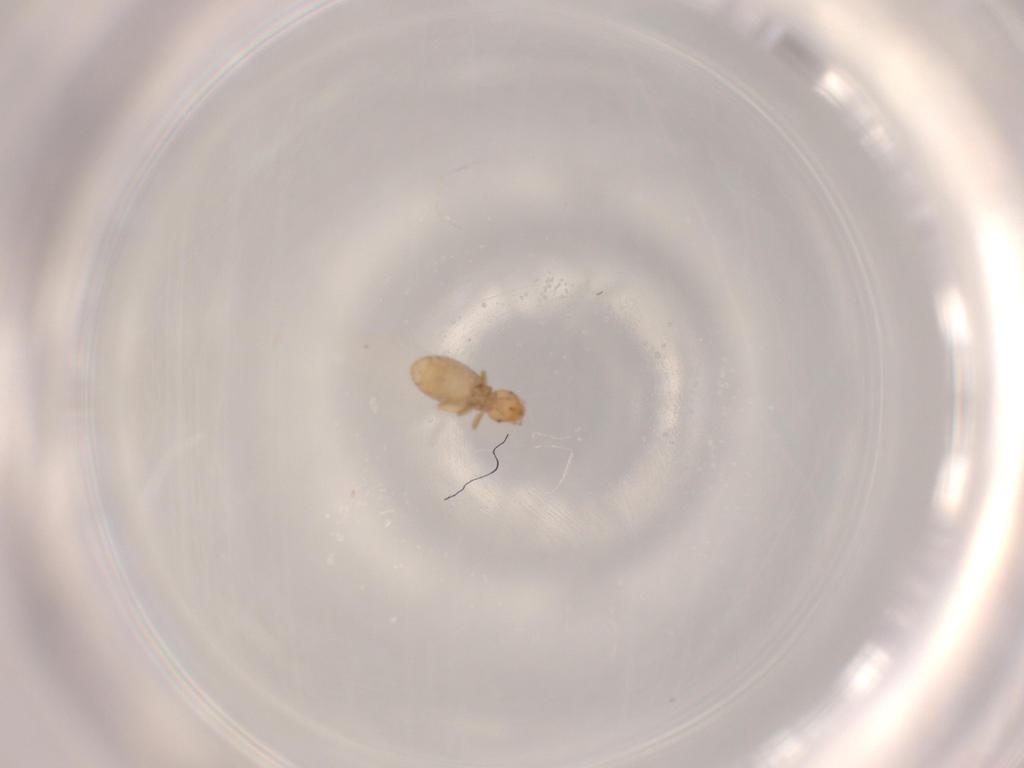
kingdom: Animalia
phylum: Arthropoda
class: Insecta
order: Psocodea
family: Liposcelididae
